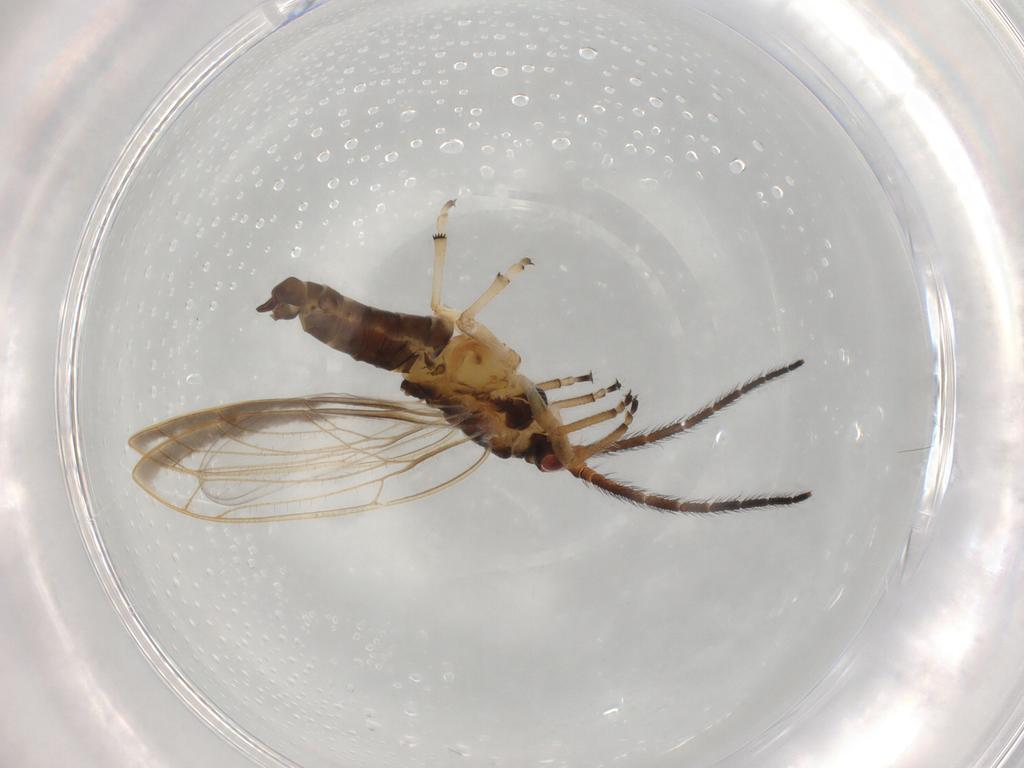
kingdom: Animalia
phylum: Arthropoda
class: Insecta
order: Hemiptera
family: Aphididae
